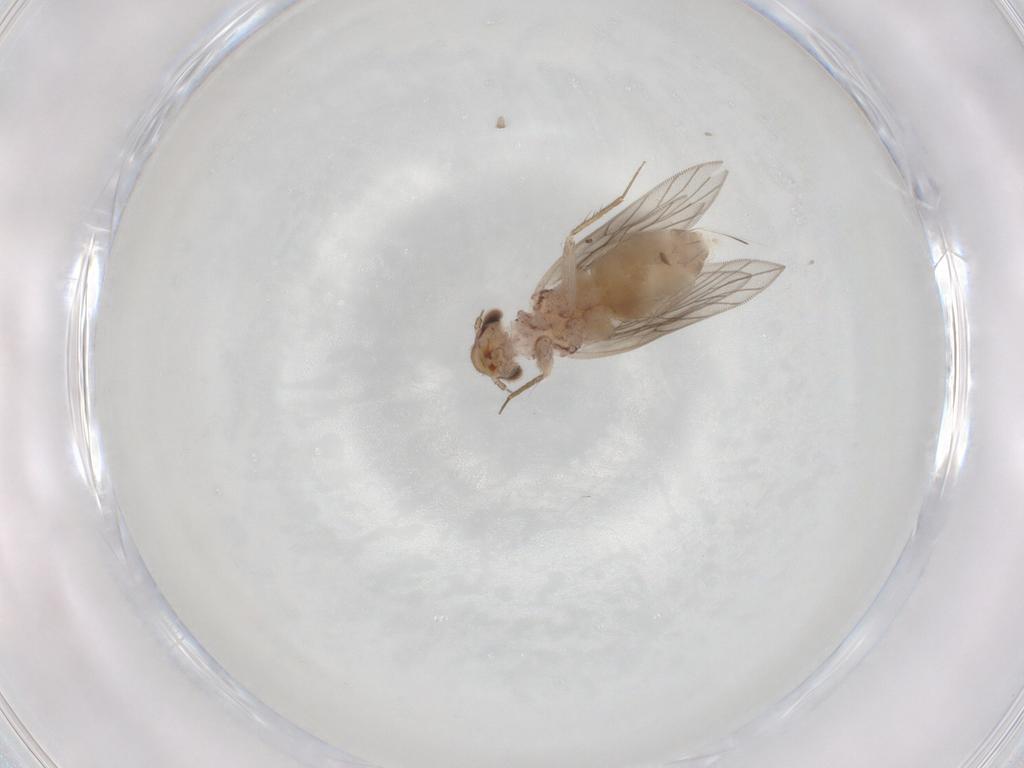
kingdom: Animalia
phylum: Arthropoda
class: Insecta
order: Psocodea
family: Lepidopsocidae
